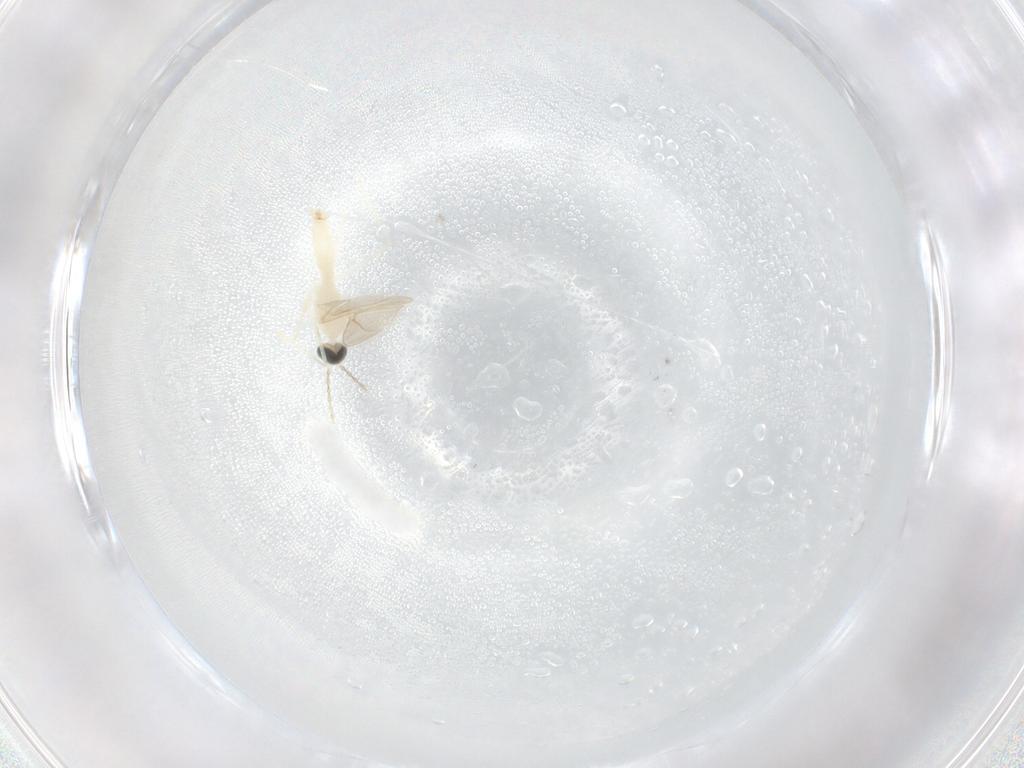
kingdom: Animalia
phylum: Arthropoda
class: Insecta
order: Diptera
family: Cecidomyiidae
